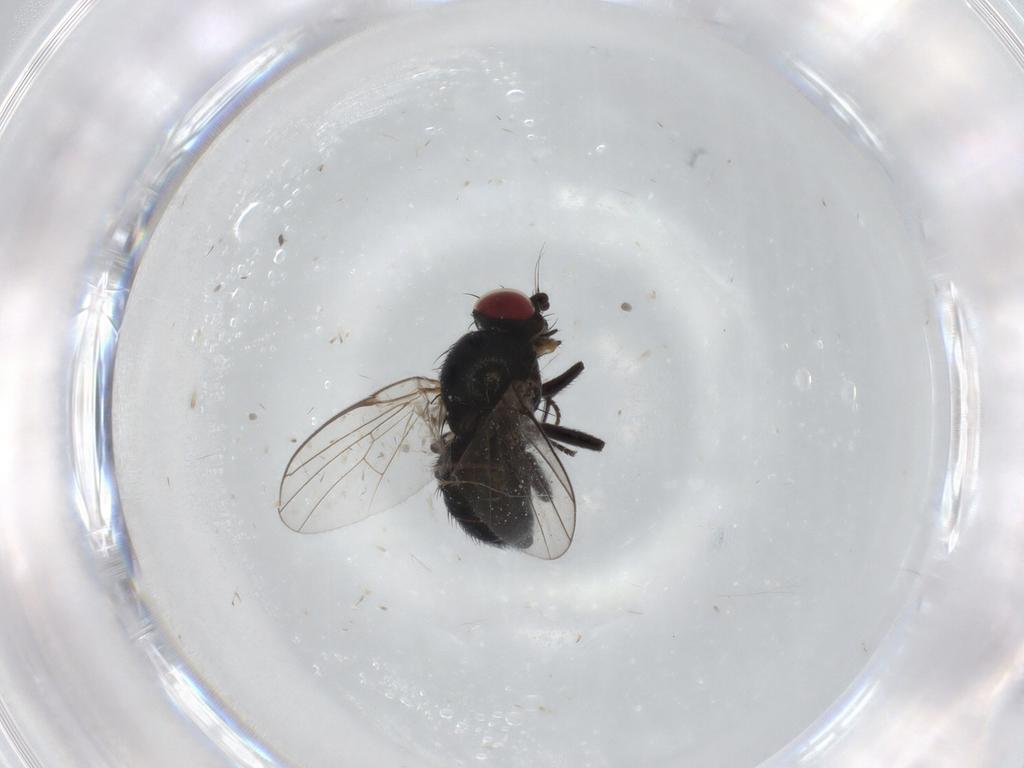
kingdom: Animalia
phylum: Arthropoda
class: Insecta
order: Diptera
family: Agromyzidae
